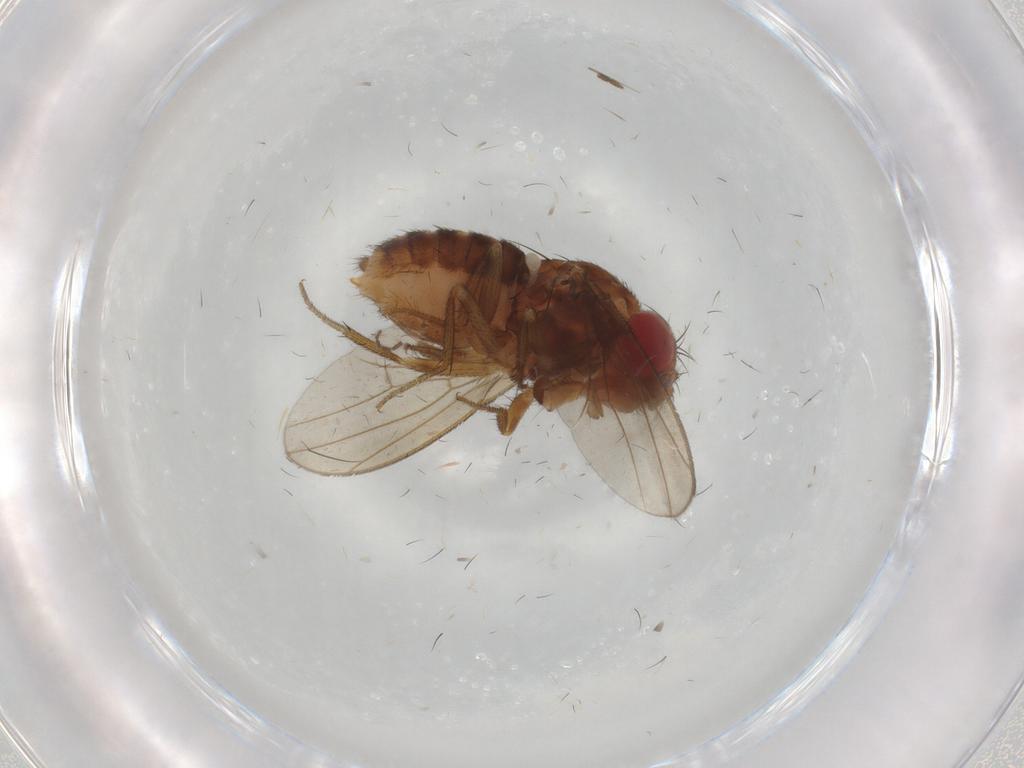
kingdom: Animalia
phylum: Arthropoda
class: Insecta
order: Diptera
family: Drosophilidae
